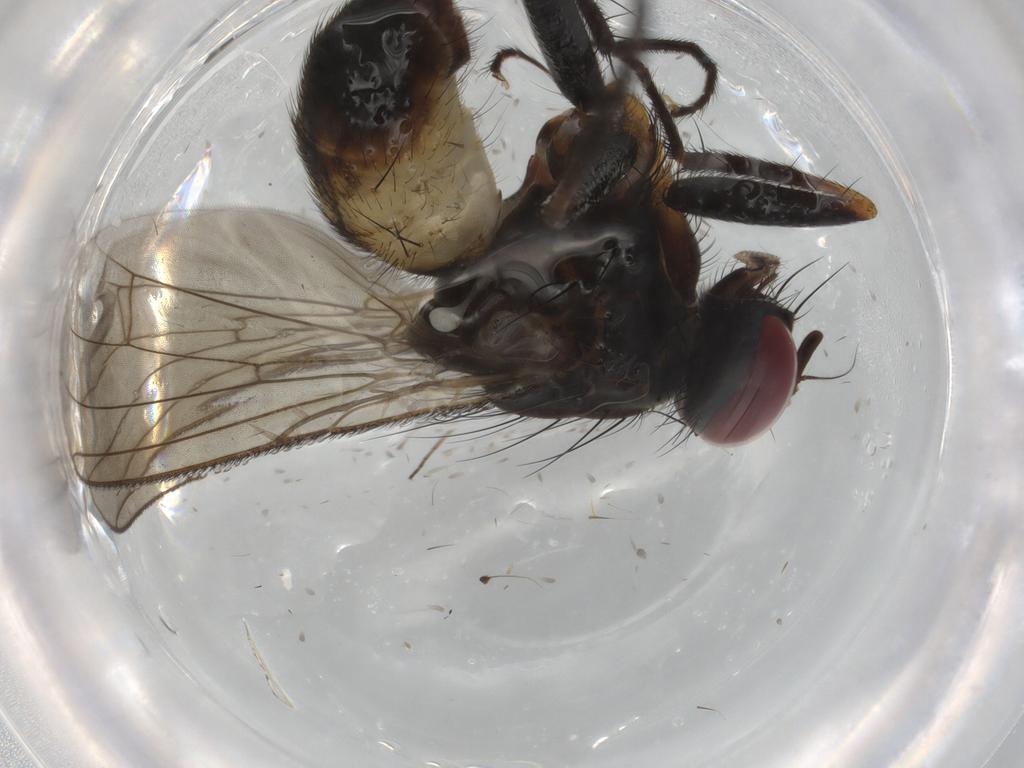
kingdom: Animalia
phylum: Arthropoda
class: Insecta
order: Diptera
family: Muscidae
